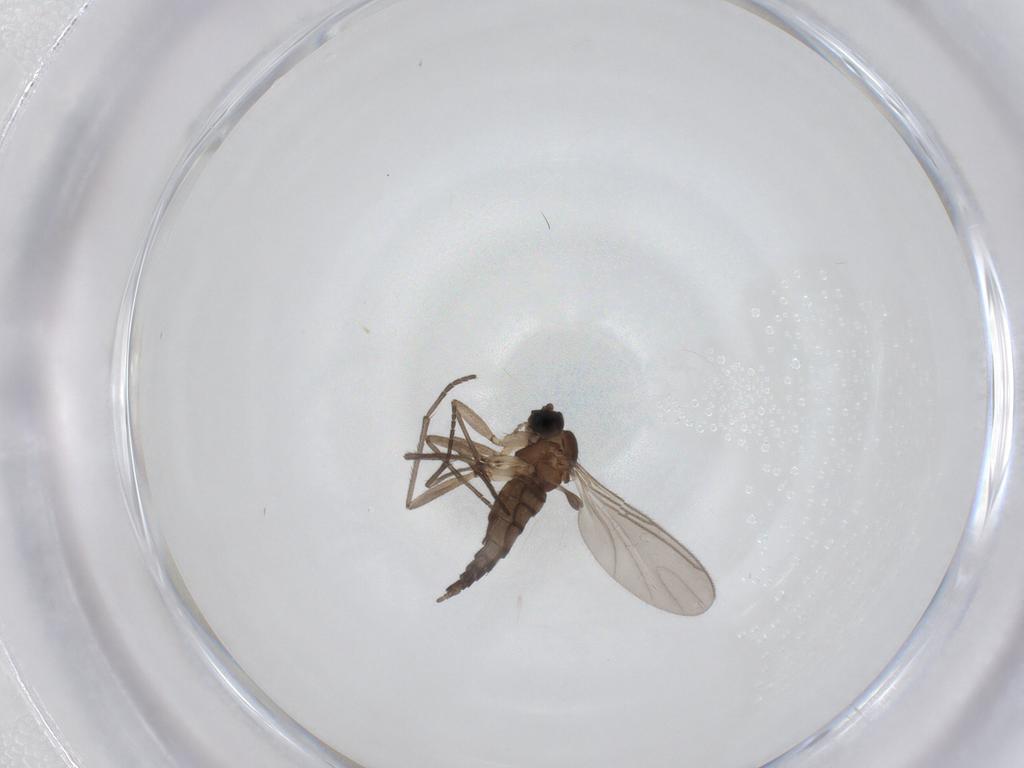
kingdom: Animalia
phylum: Arthropoda
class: Insecta
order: Diptera
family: Sciaridae
